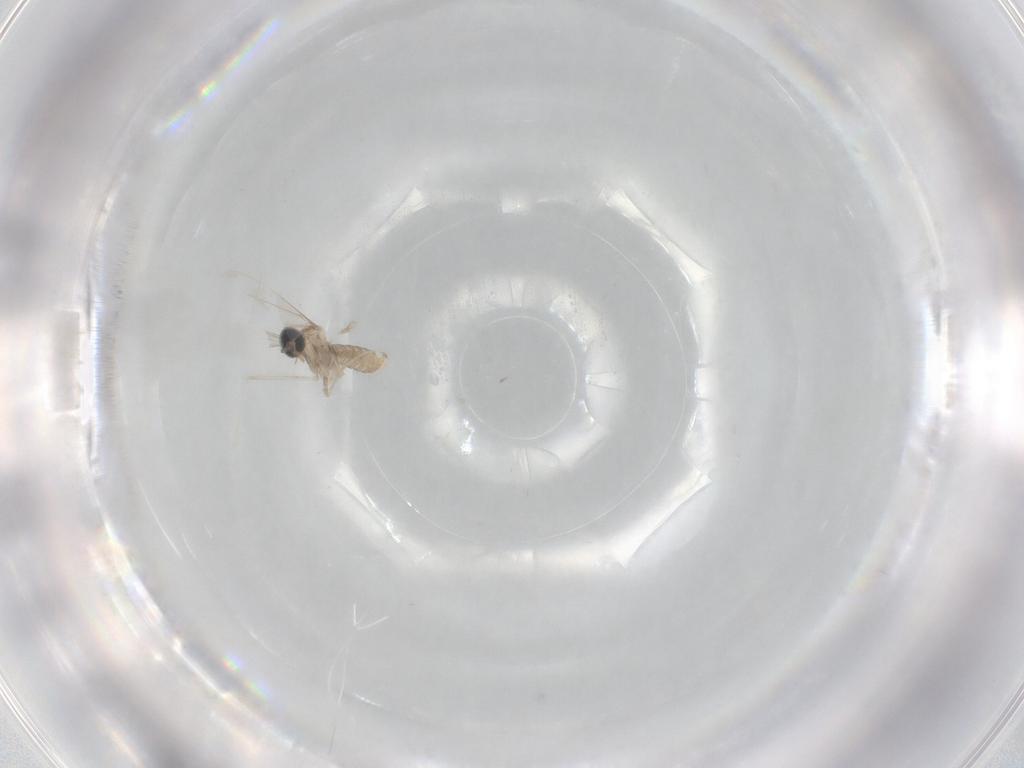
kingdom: Animalia
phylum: Arthropoda
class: Insecta
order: Diptera
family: Cecidomyiidae
